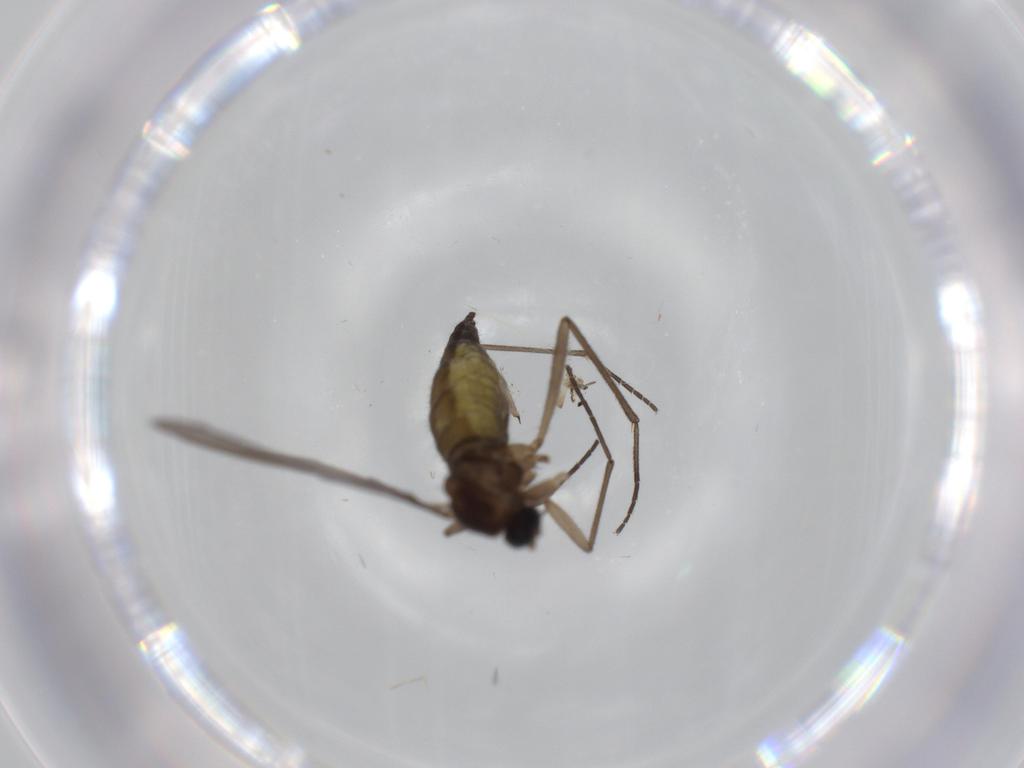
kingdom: Animalia
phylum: Arthropoda
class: Insecta
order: Diptera
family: Sciaridae
